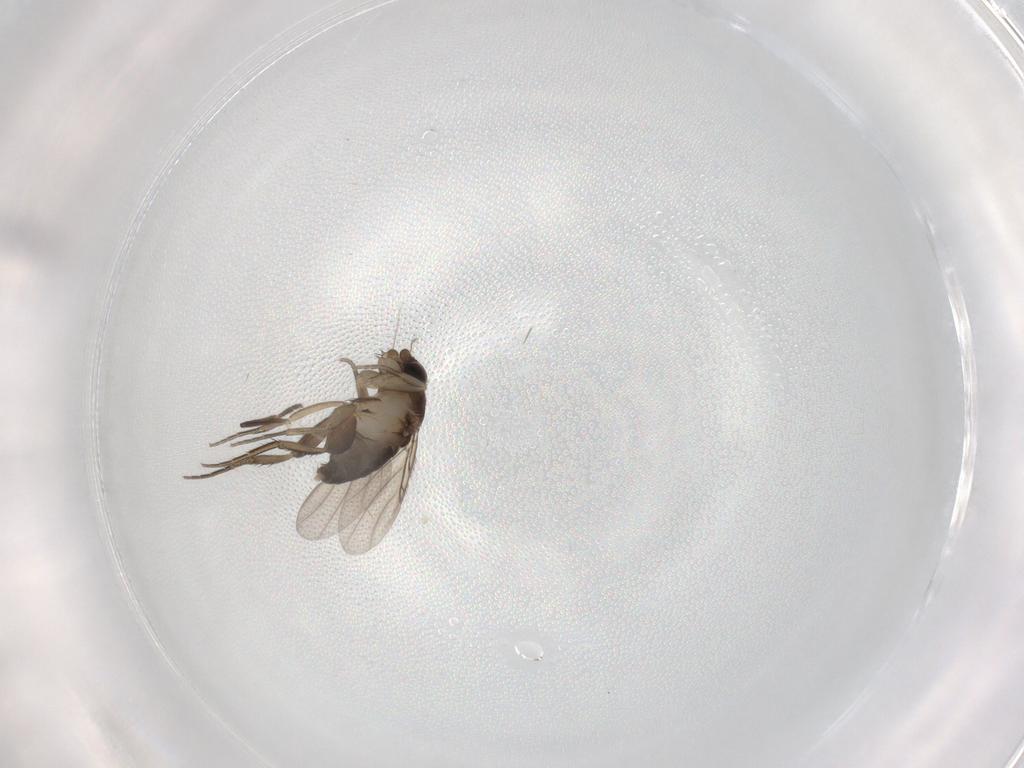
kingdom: Animalia
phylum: Arthropoda
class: Insecta
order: Diptera
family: Phoridae
